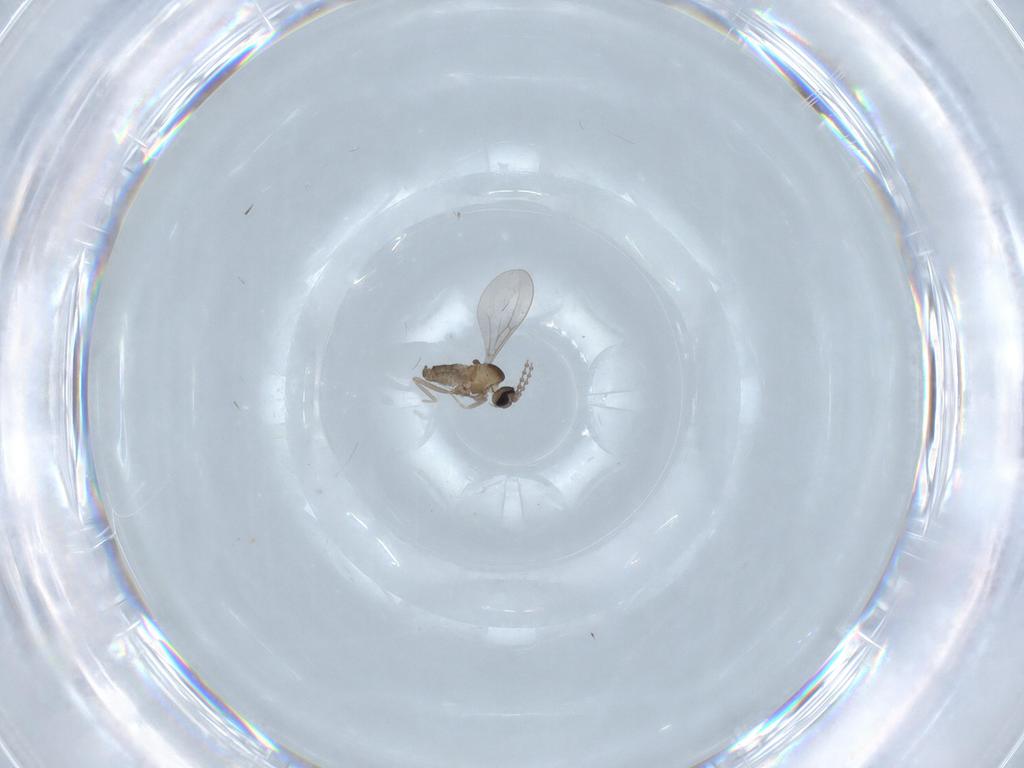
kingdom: Animalia
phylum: Arthropoda
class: Insecta
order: Diptera
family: Cecidomyiidae
